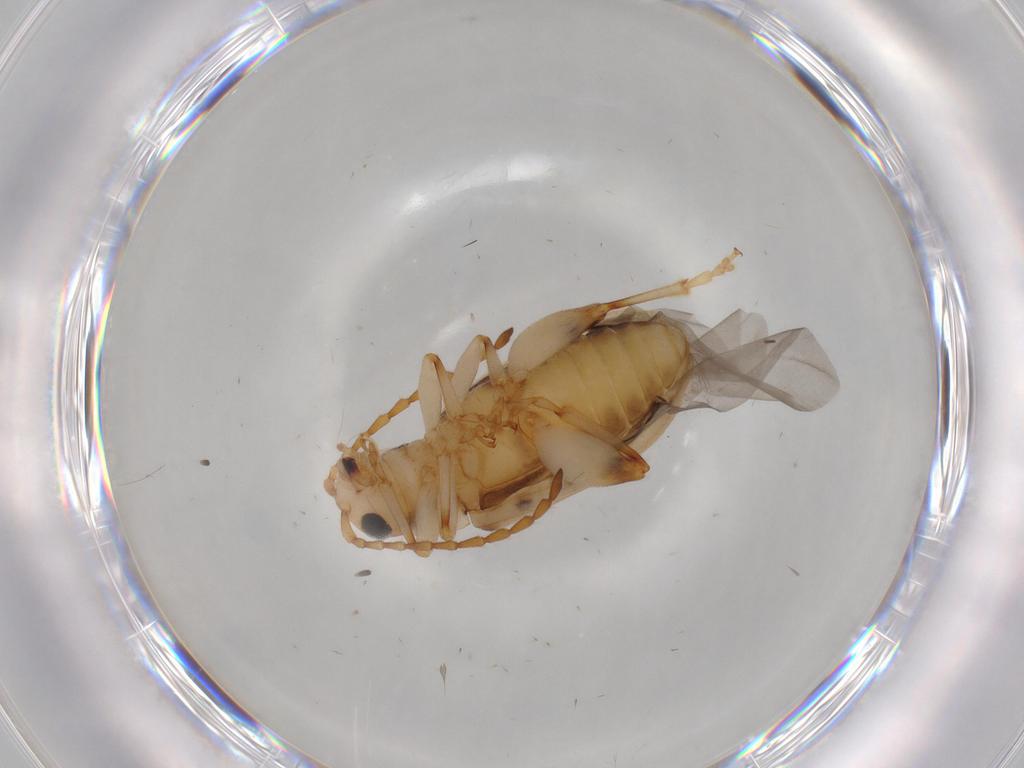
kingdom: Animalia
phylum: Arthropoda
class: Insecta
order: Coleoptera
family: Chrysomelidae
